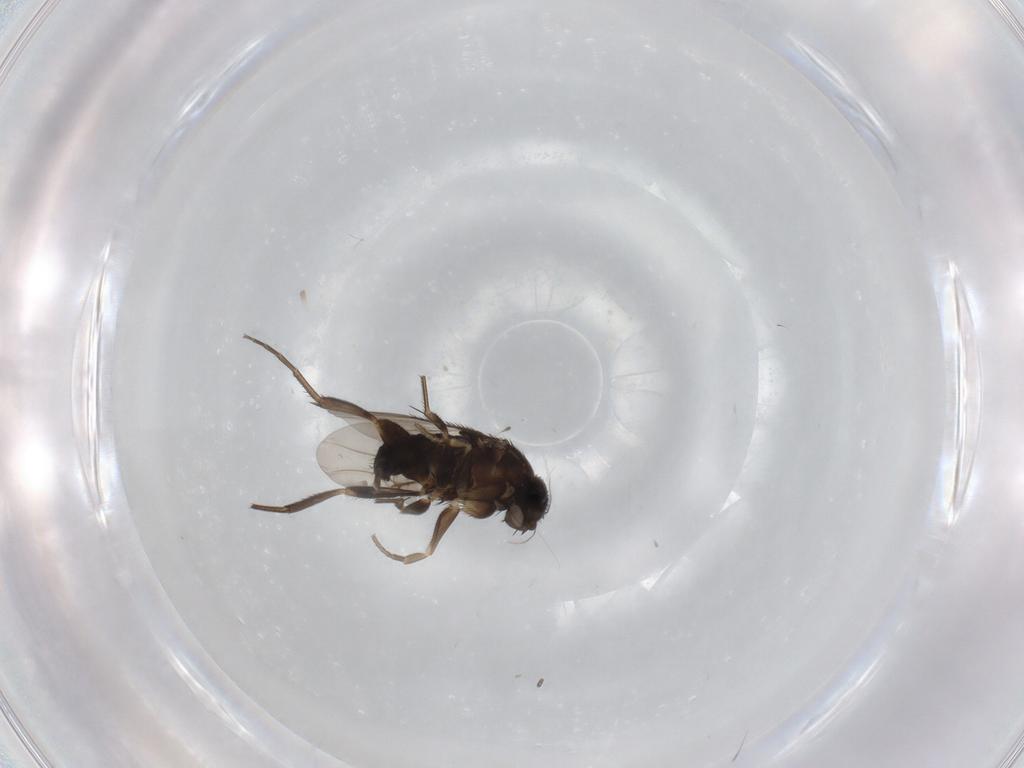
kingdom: Animalia
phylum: Arthropoda
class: Insecta
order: Diptera
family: Phoridae
